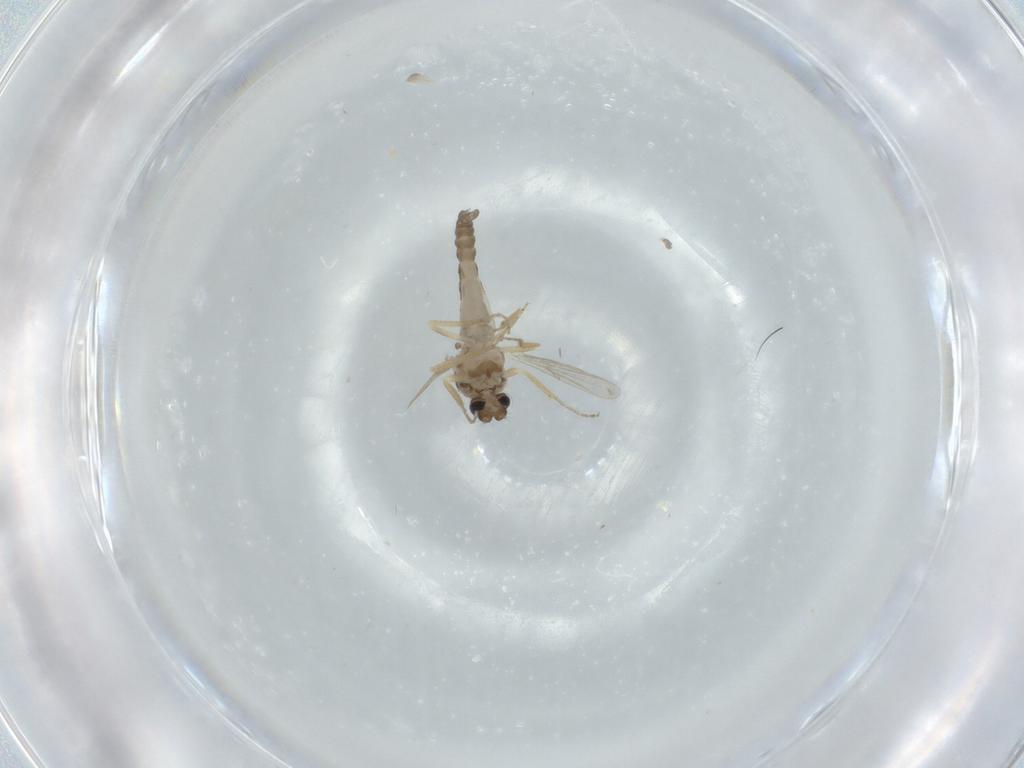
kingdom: Animalia
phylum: Arthropoda
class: Insecta
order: Diptera
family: Ceratopogonidae
